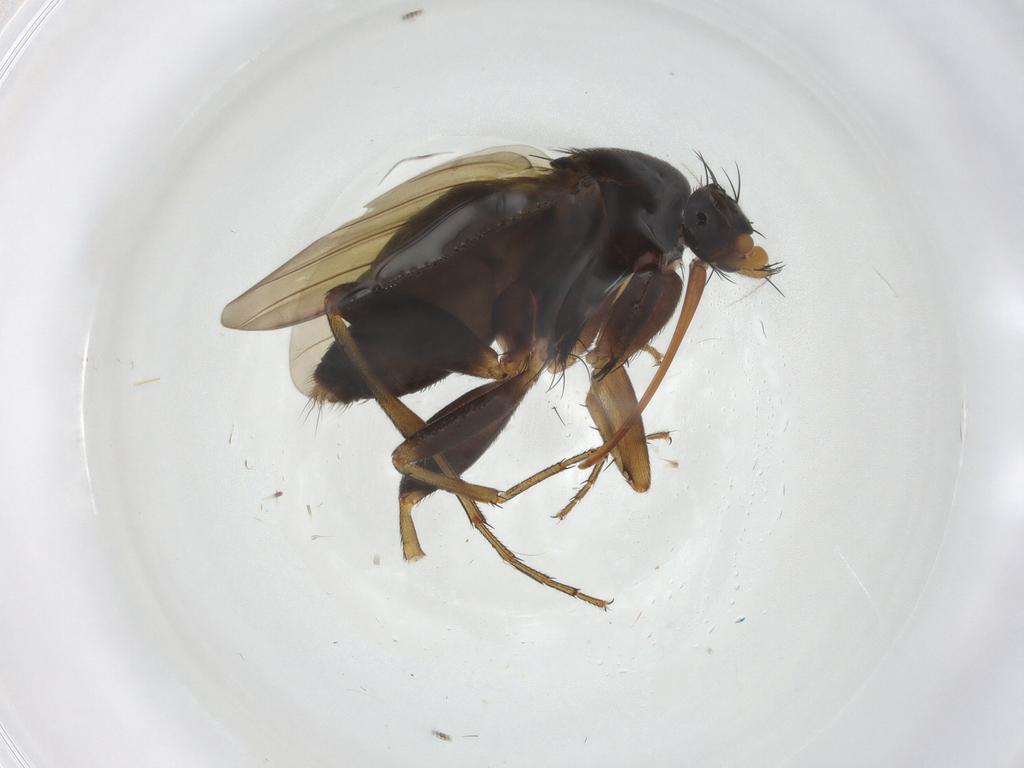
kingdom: Animalia
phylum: Arthropoda
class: Insecta
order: Diptera
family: Phoridae
